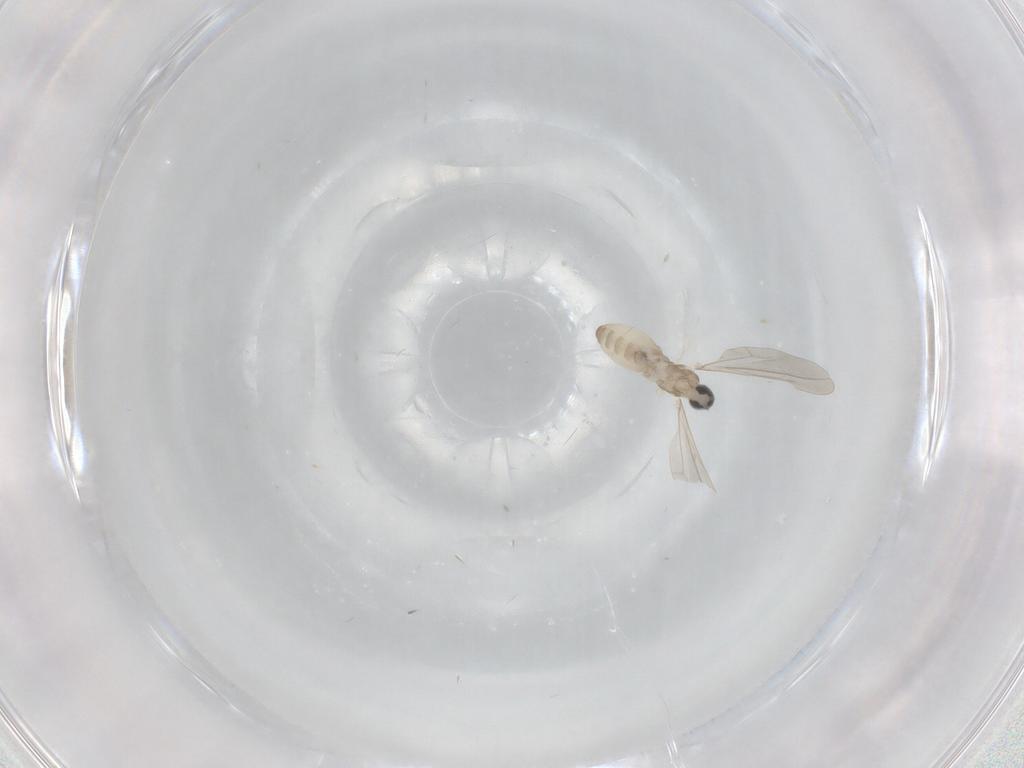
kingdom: Animalia
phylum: Arthropoda
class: Insecta
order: Diptera
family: Cecidomyiidae
